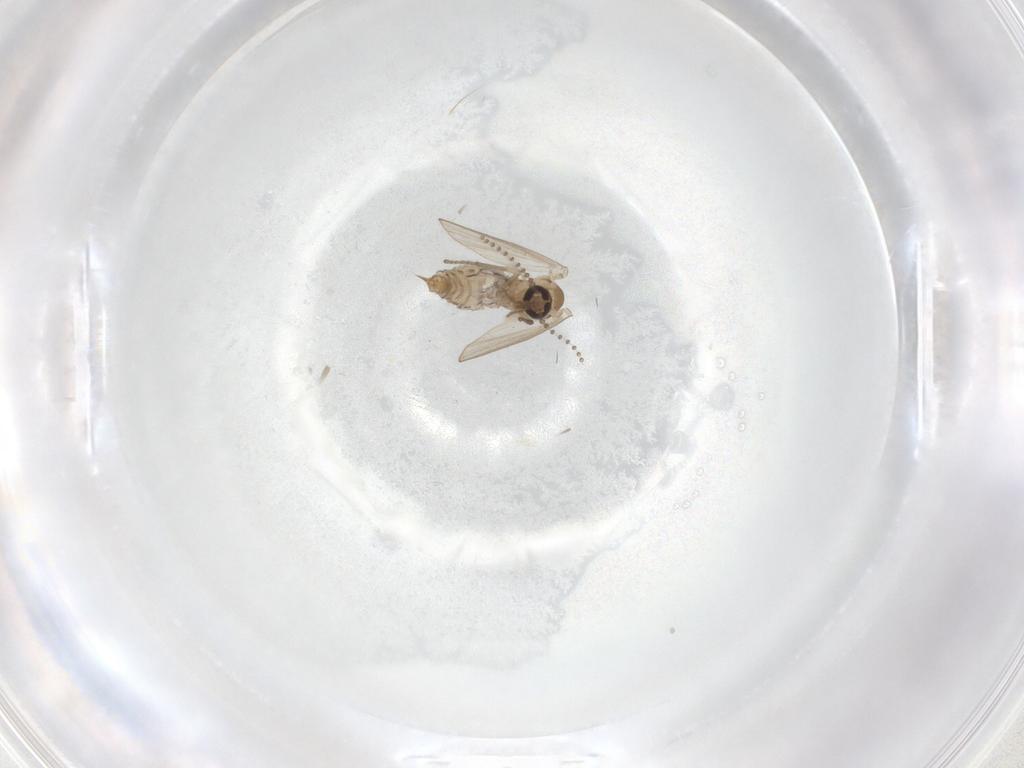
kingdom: Animalia
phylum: Arthropoda
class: Insecta
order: Diptera
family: Psychodidae
